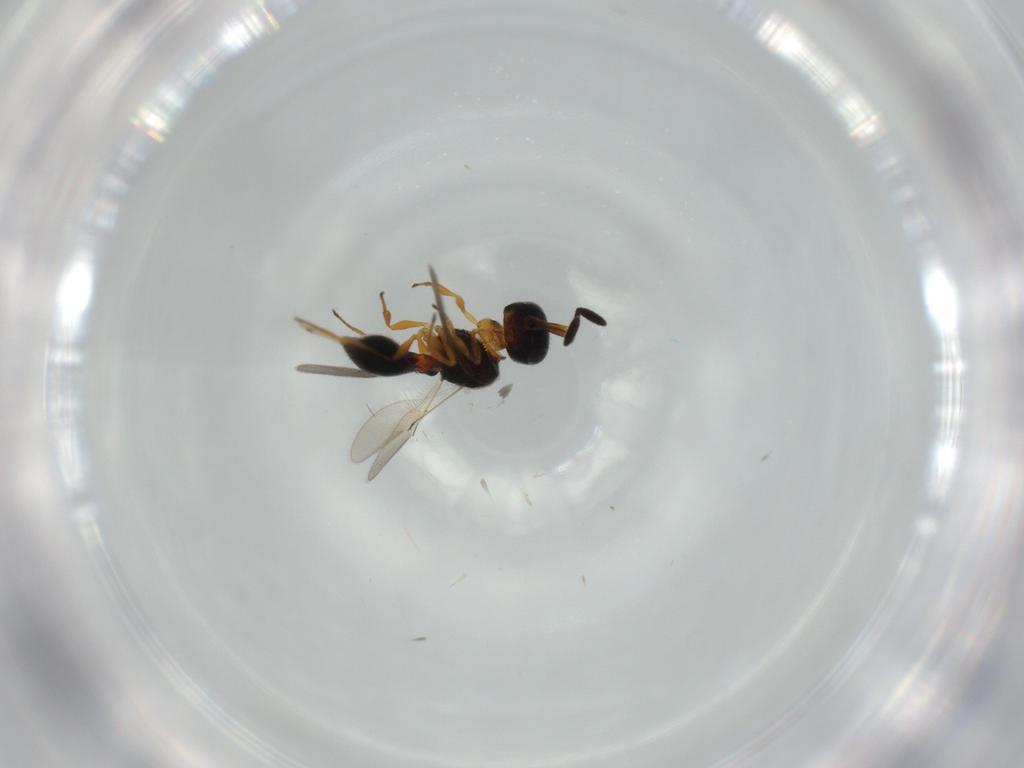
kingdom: Animalia
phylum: Arthropoda
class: Insecta
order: Hymenoptera
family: Scelionidae
